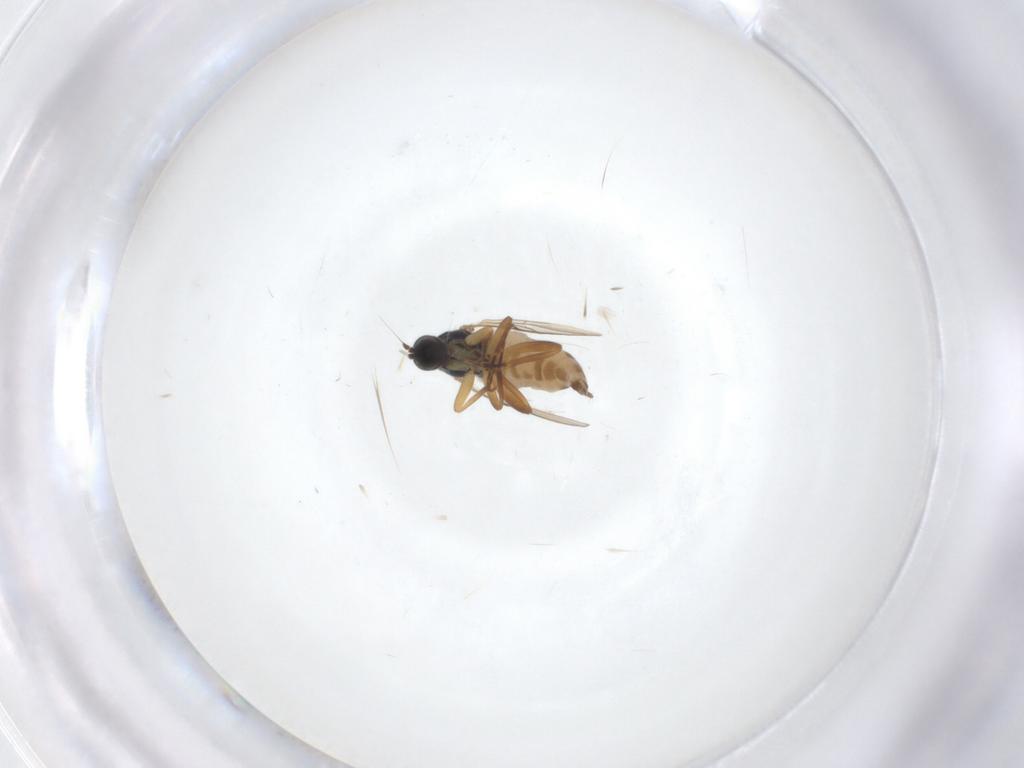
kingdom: Animalia
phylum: Arthropoda
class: Insecta
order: Diptera
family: Hybotidae
